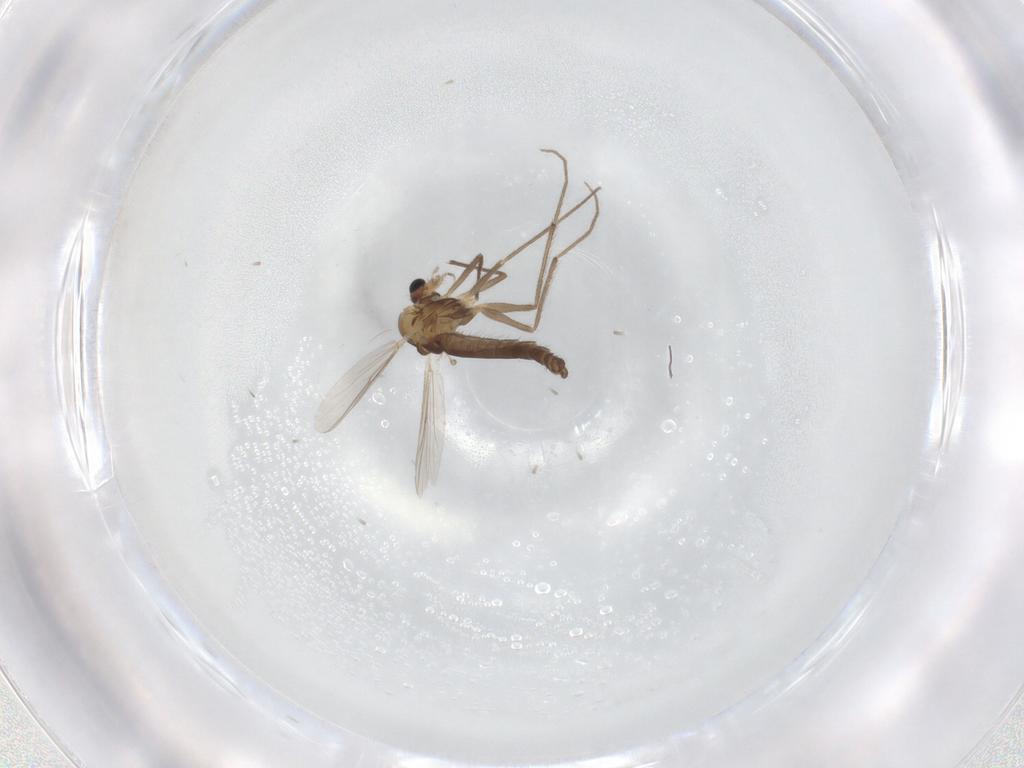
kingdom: Animalia
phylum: Arthropoda
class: Insecta
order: Diptera
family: Chironomidae
